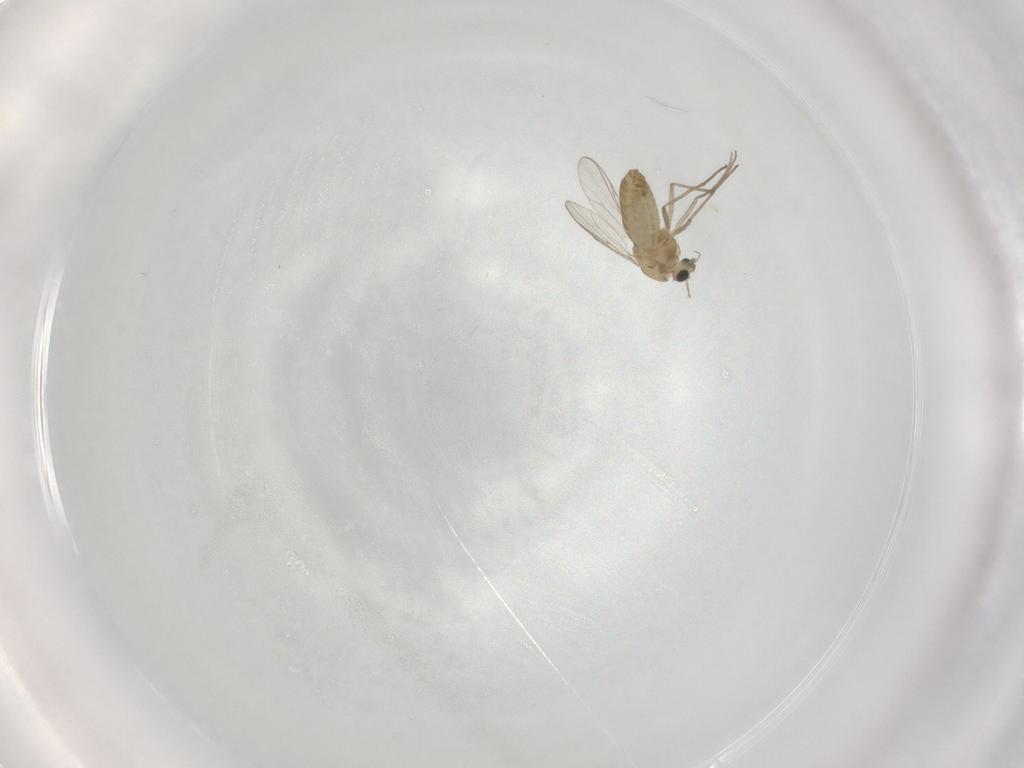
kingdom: Animalia
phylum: Arthropoda
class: Insecta
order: Diptera
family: Chironomidae
